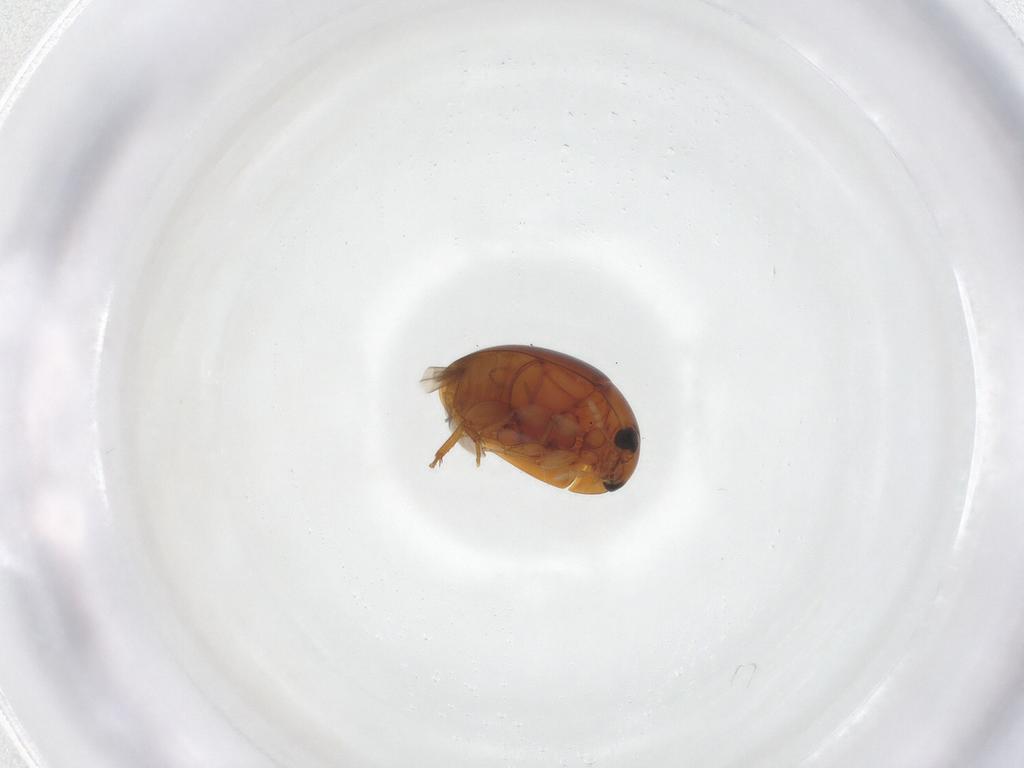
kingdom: Animalia
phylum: Arthropoda
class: Insecta
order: Coleoptera
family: Phalacridae
